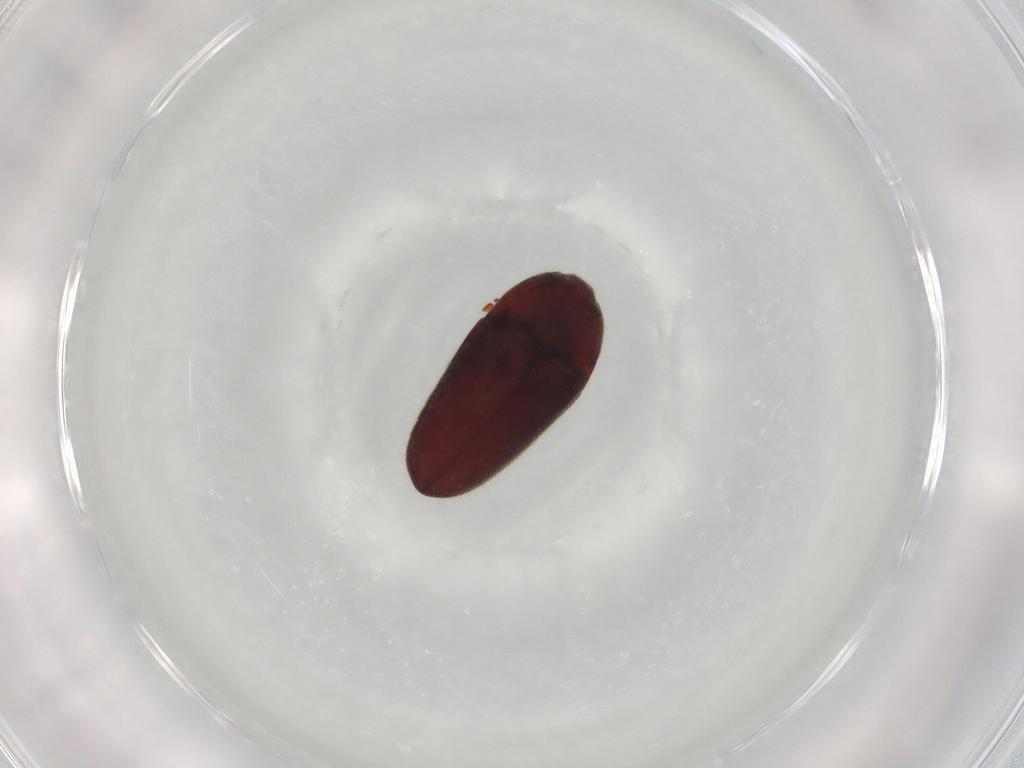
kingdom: Animalia
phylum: Arthropoda
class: Insecta
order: Coleoptera
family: Throscidae
